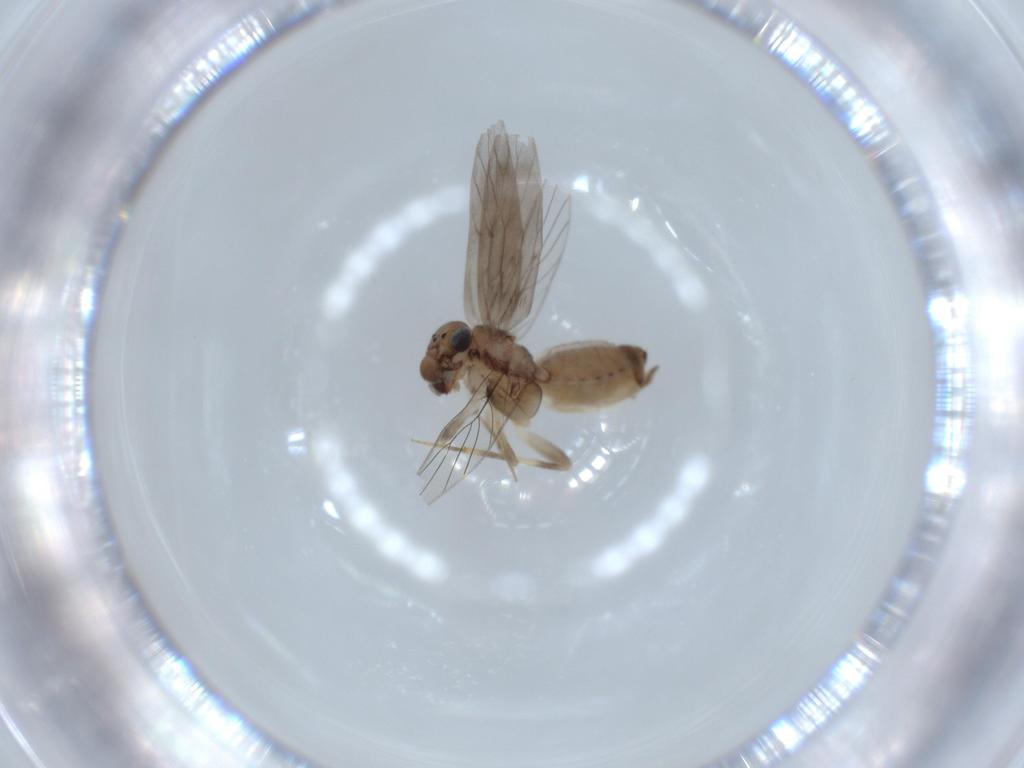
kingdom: Animalia
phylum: Arthropoda
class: Insecta
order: Psocodea
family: Lepidopsocidae
